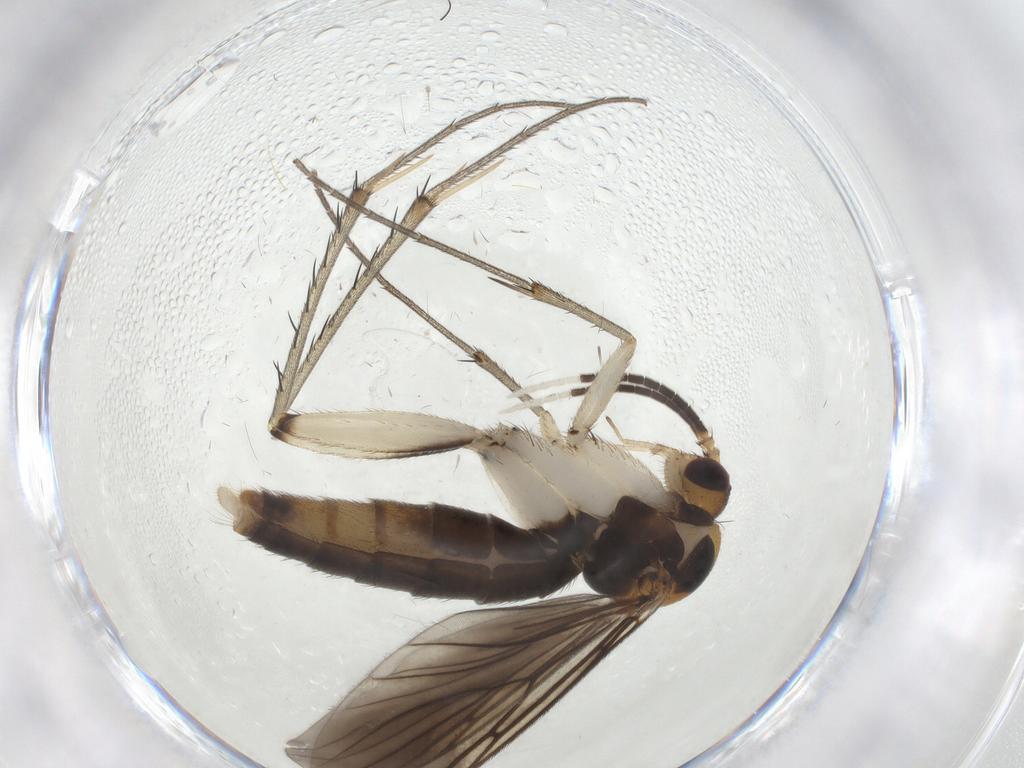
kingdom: Animalia
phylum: Arthropoda
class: Insecta
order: Diptera
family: Mycetophilidae
